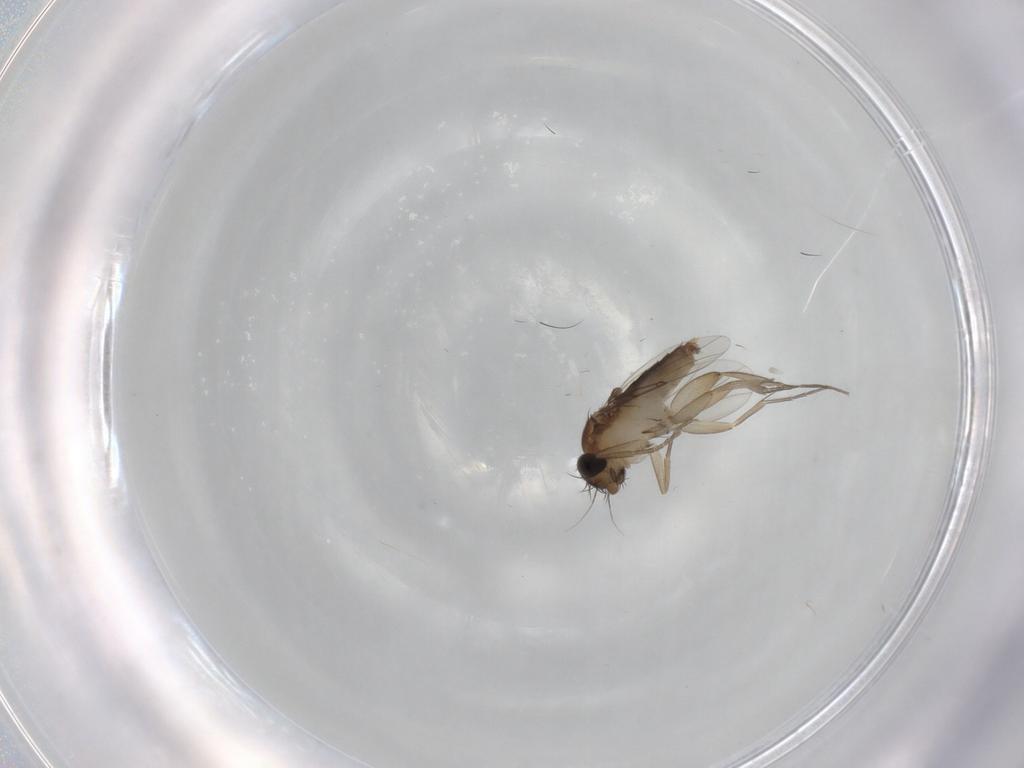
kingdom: Animalia
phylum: Arthropoda
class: Insecta
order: Diptera
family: Phoridae
